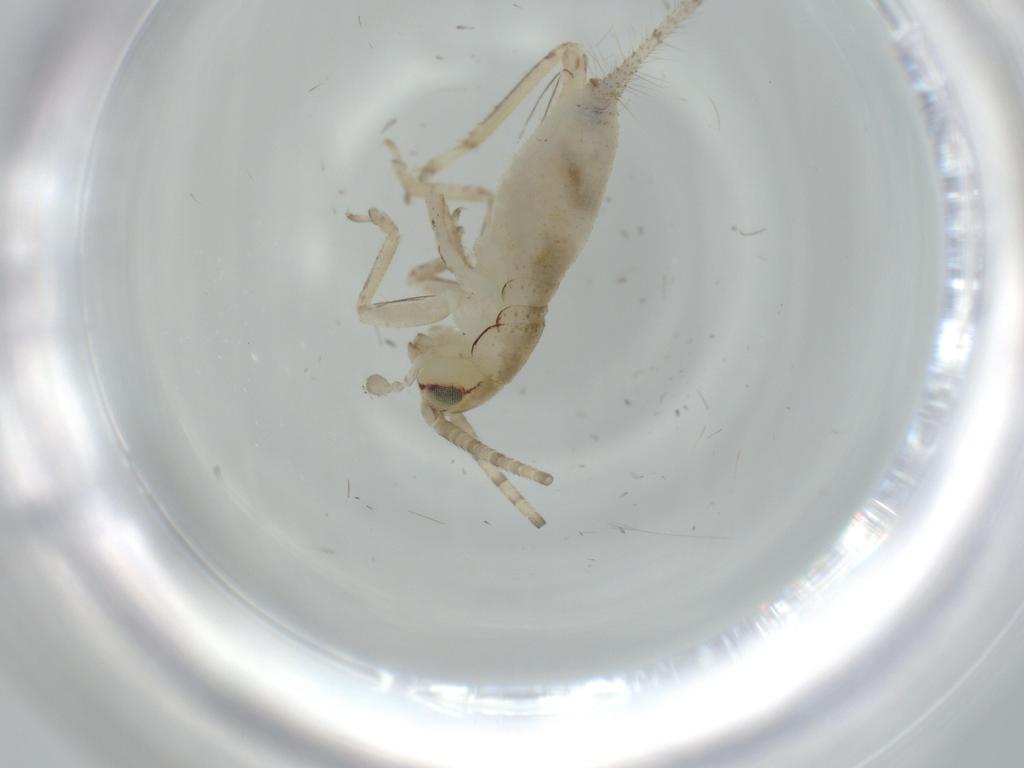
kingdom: Animalia
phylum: Arthropoda
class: Insecta
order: Orthoptera
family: Gryllidae
